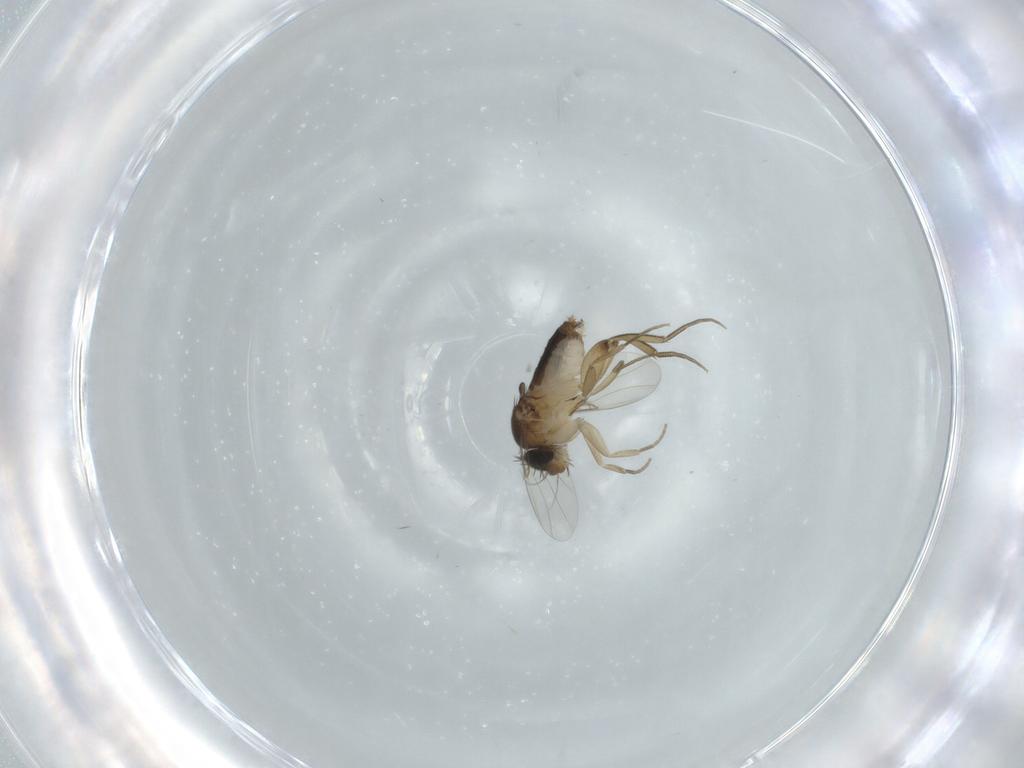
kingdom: Animalia
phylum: Arthropoda
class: Insecta
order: Diptera
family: Phoridae
